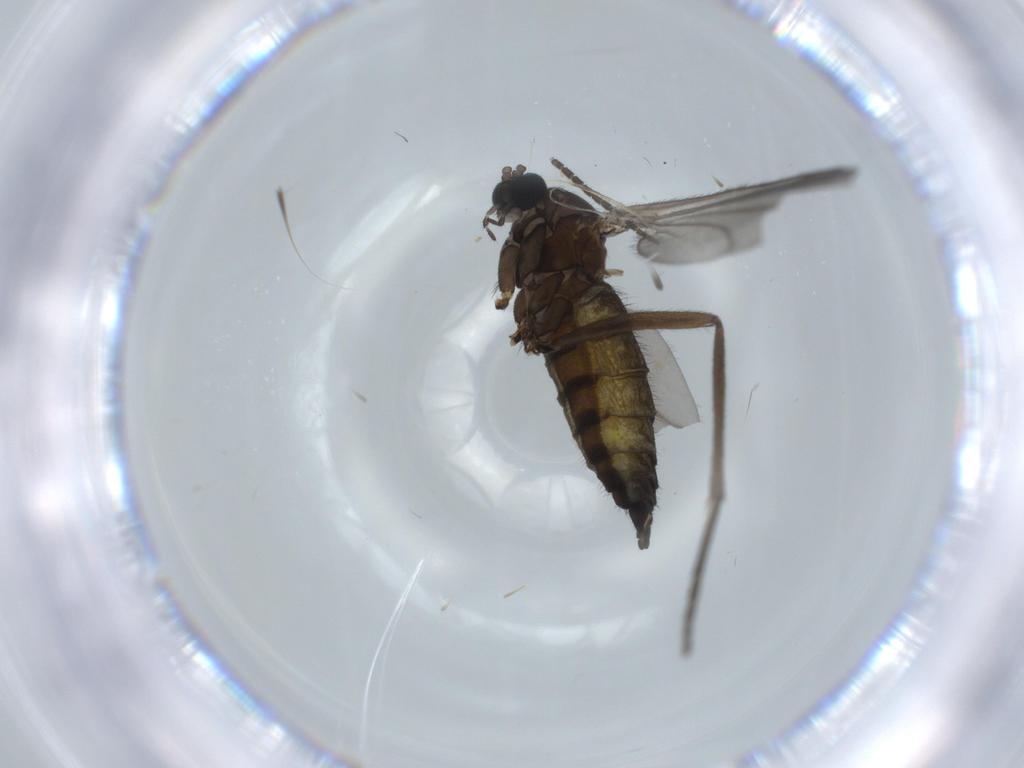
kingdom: Animalia
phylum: Arthropoda
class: Insecta
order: Diptera
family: Sciaridae
